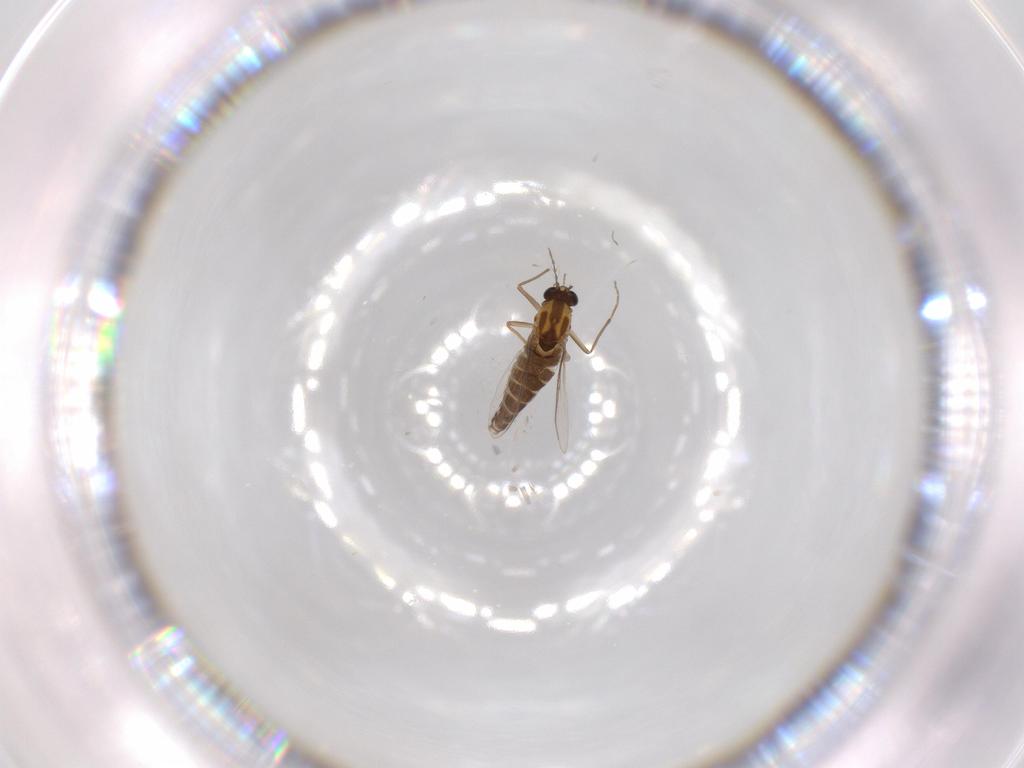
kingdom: Animalia
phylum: Arthropoda
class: Insecta
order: Diptera
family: Chironomidae
